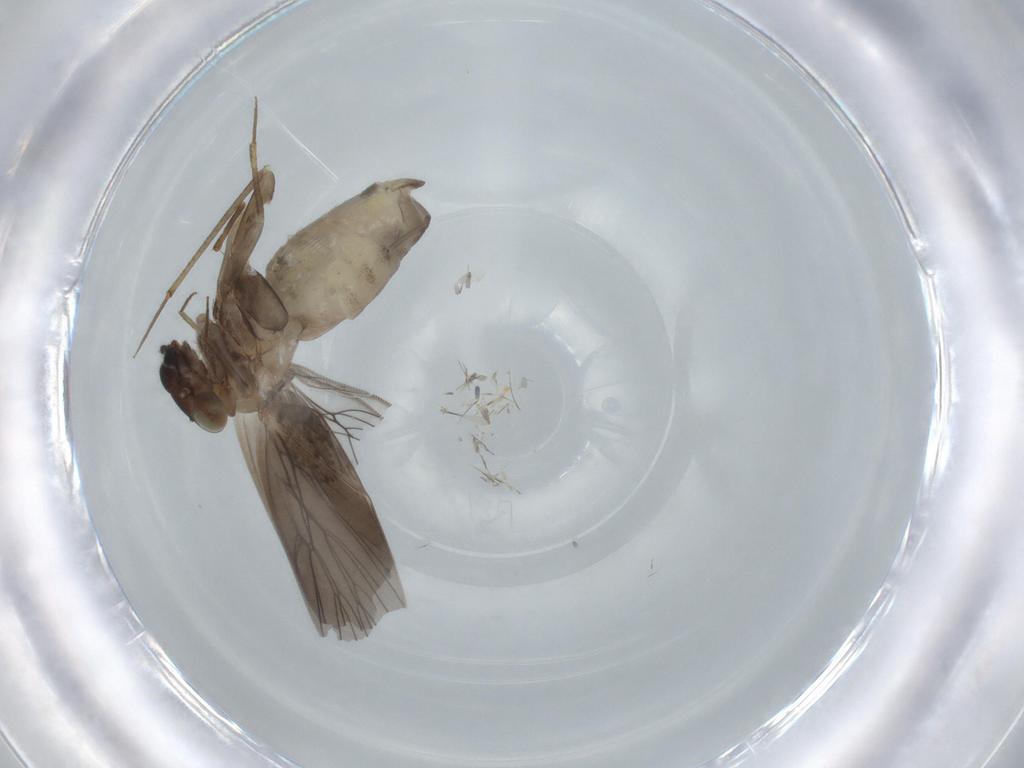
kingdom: Animalia
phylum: Arthropoda
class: Insecta
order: Psocodea
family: Lepidopsocidae
